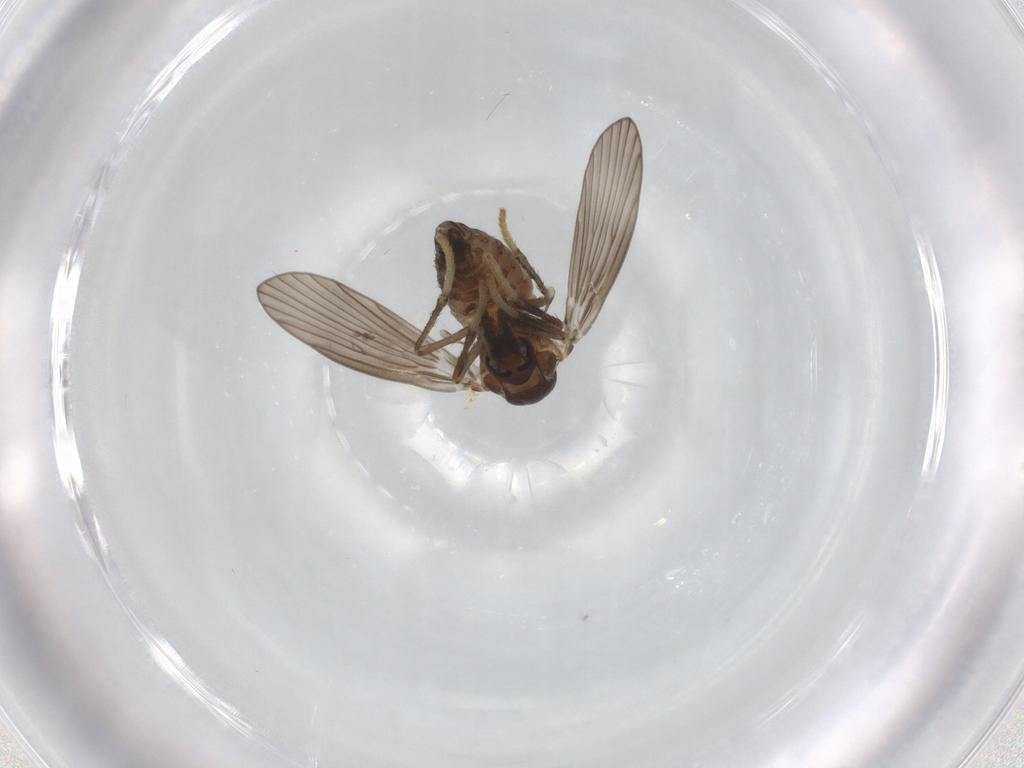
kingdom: Animalia
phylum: Arthropoda
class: Insecta
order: Diptera
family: Psychodidae
